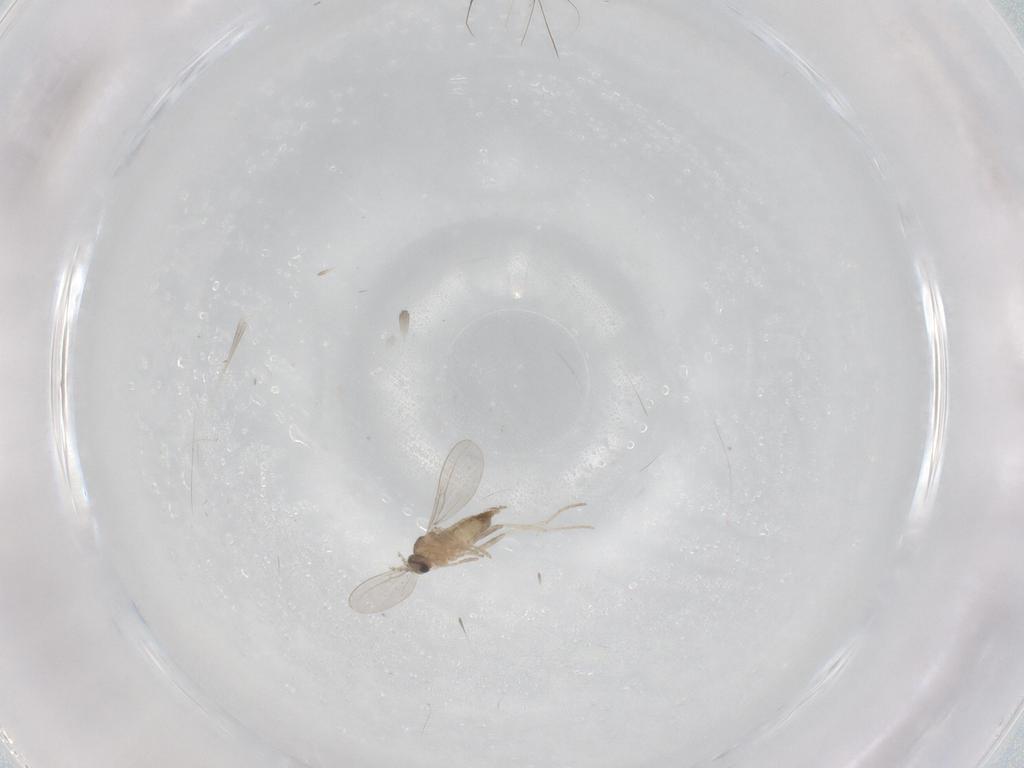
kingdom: Animalia
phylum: Arthropoda
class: Insecta
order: Diptera
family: Cecidomyiidae
